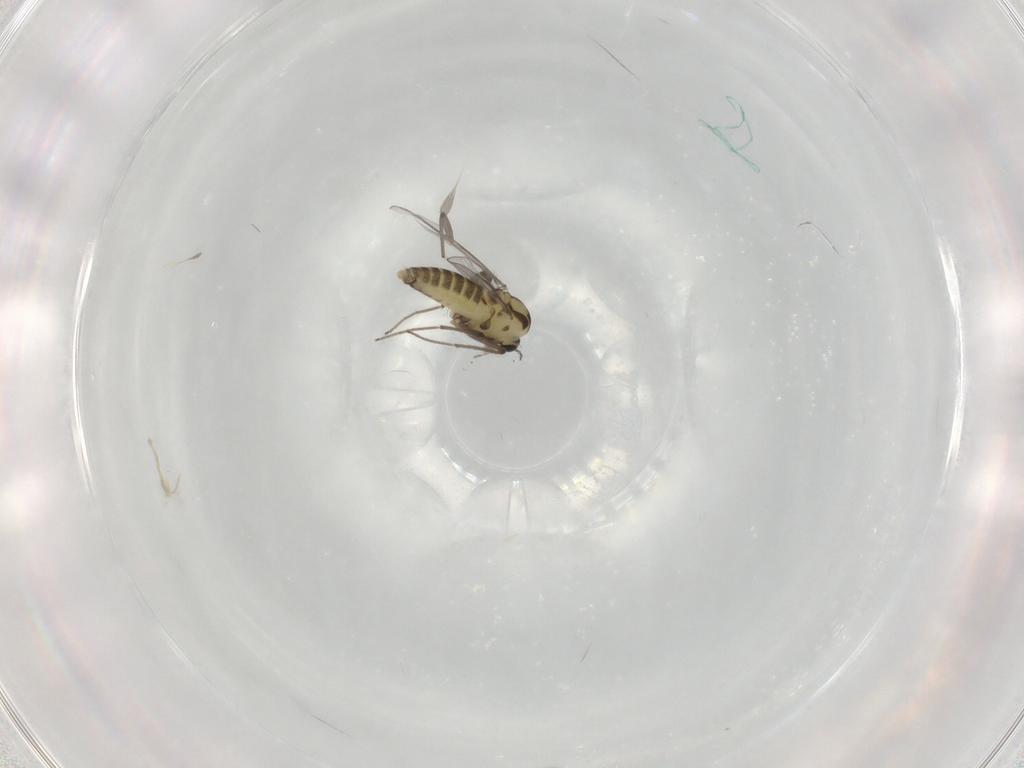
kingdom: Animalia
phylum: Arthropoda
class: Insecta
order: Diptera
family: Chironomidae
